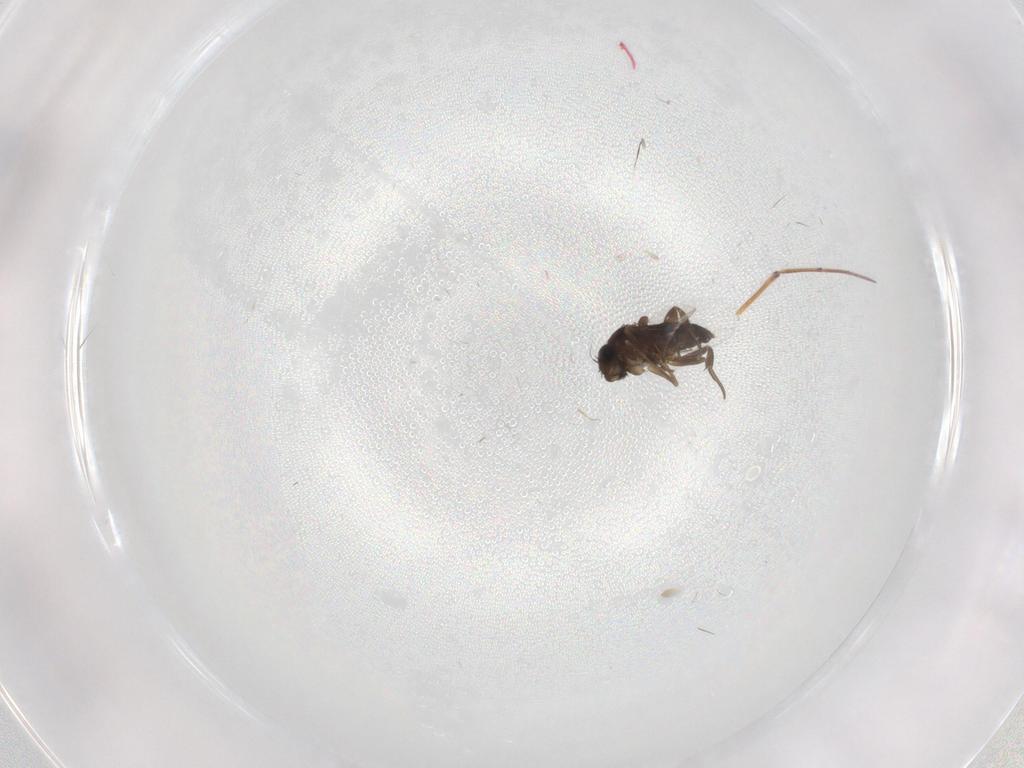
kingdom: Animalia
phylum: Arthropoda
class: Insecta
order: Diptera
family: Phoridae
